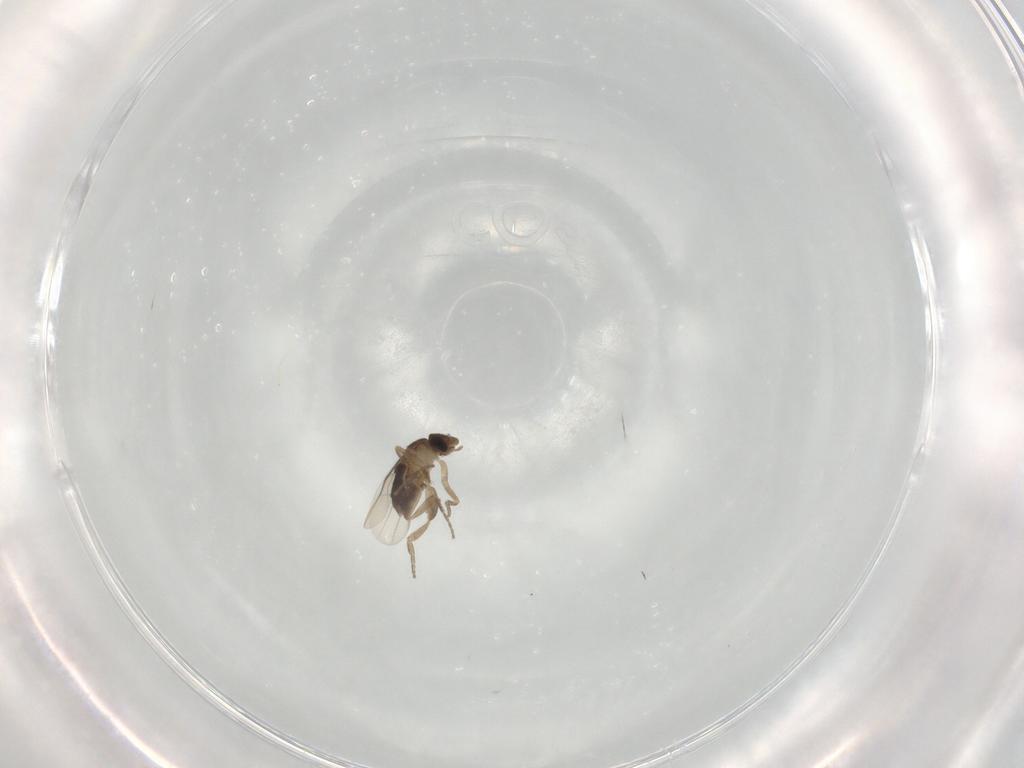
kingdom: Animalia
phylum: Arthropoda
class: Insecta
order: Diptera
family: Phoridae
